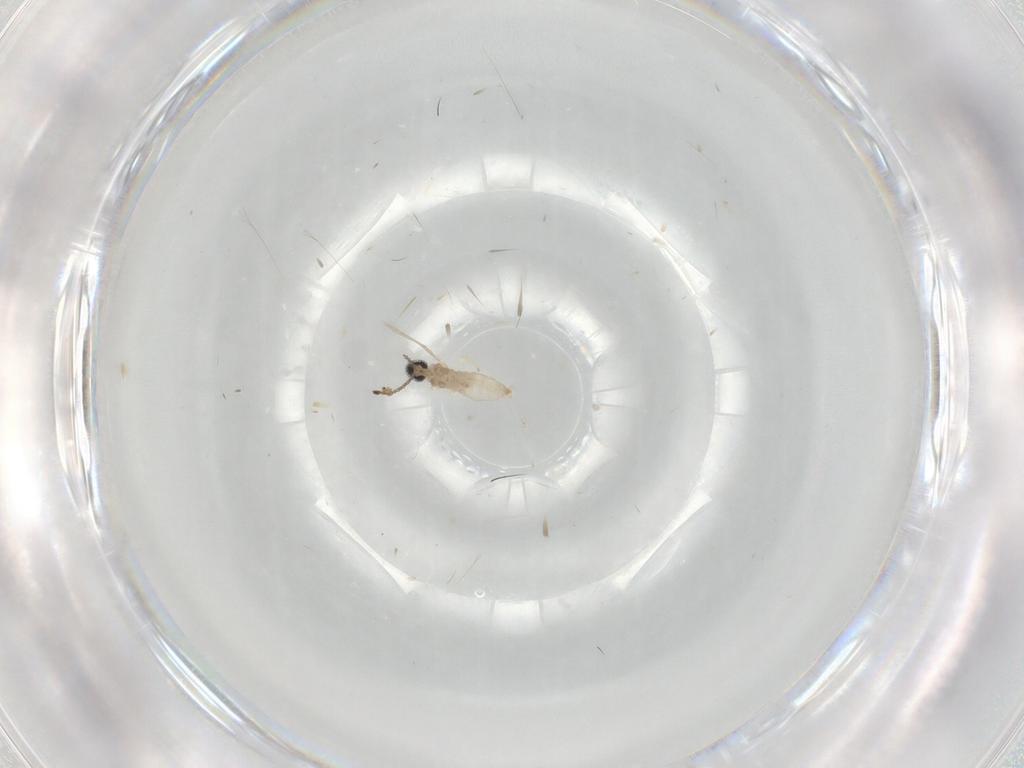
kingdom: Animalia
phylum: Arthropoda
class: Insecta
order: Diptera
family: Cecidomyiidae
